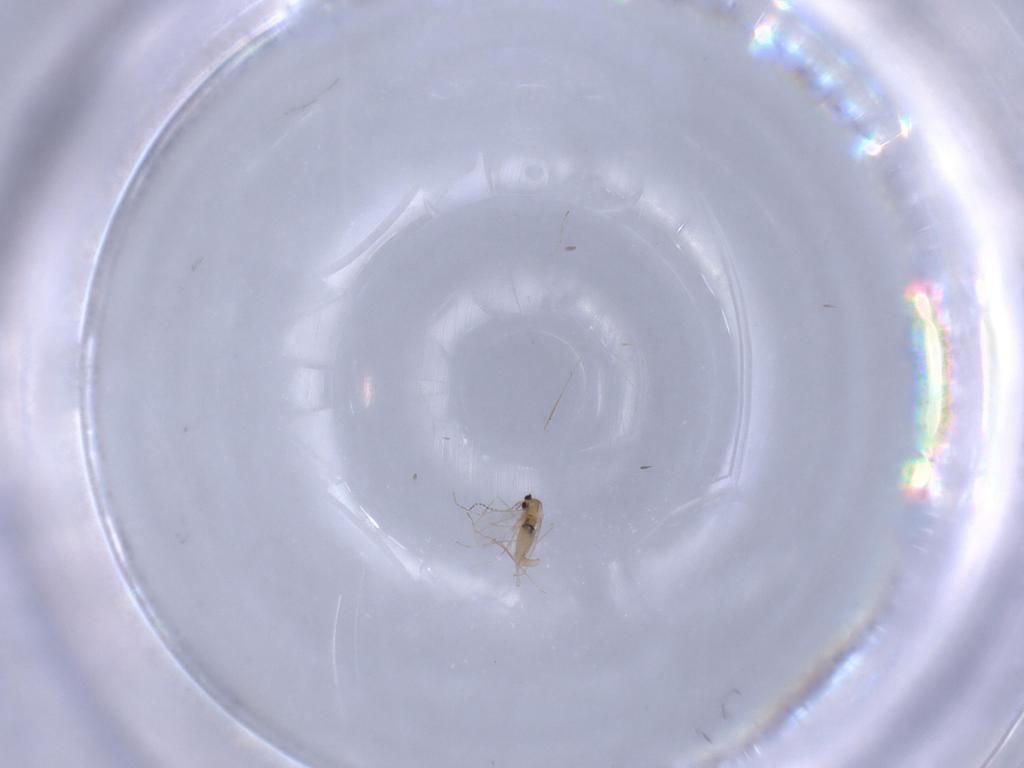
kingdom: Animalia
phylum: Arthropoda
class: Insecta
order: Diptera
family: Cecidomyiidae
